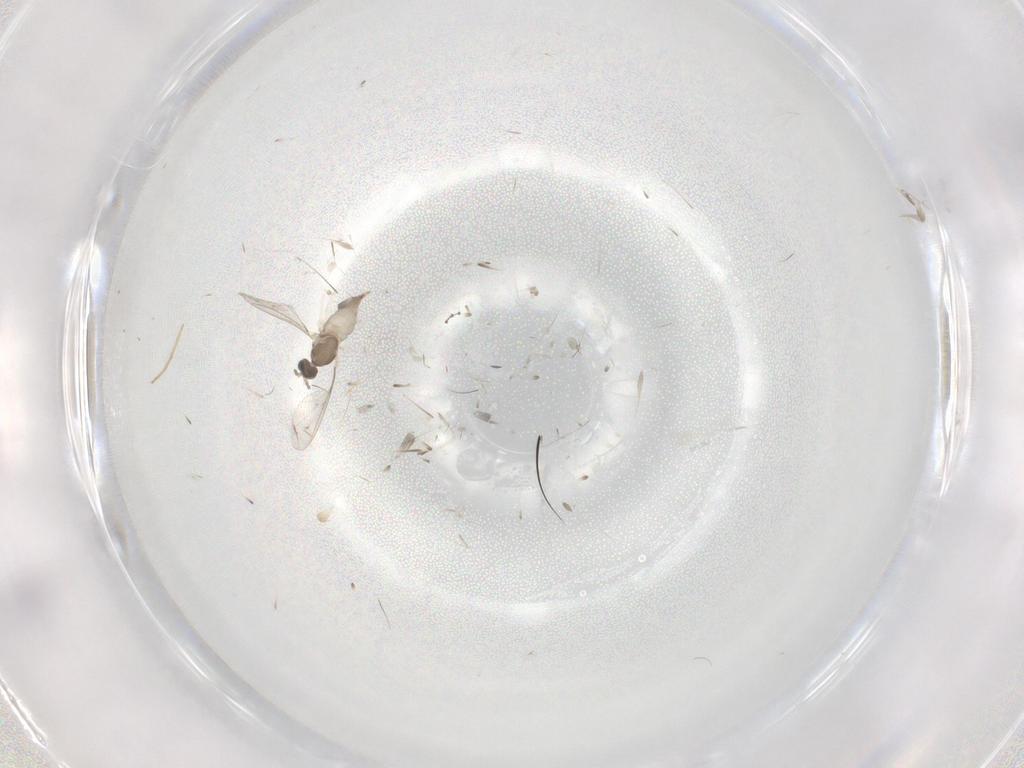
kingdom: Animalia
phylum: Arthropoda
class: Insecta
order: Diptera
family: Cecidomyiidae
